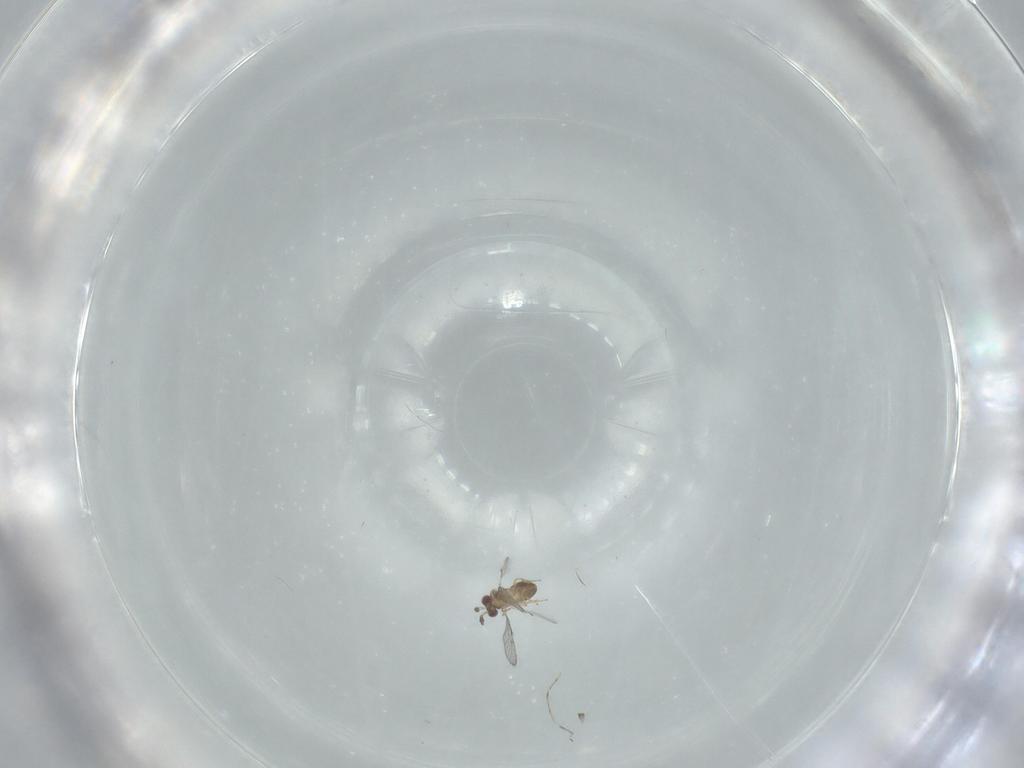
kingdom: Animalia
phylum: Arthropoda
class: Insecta
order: Hymenoptera
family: Trichogrammatidae
